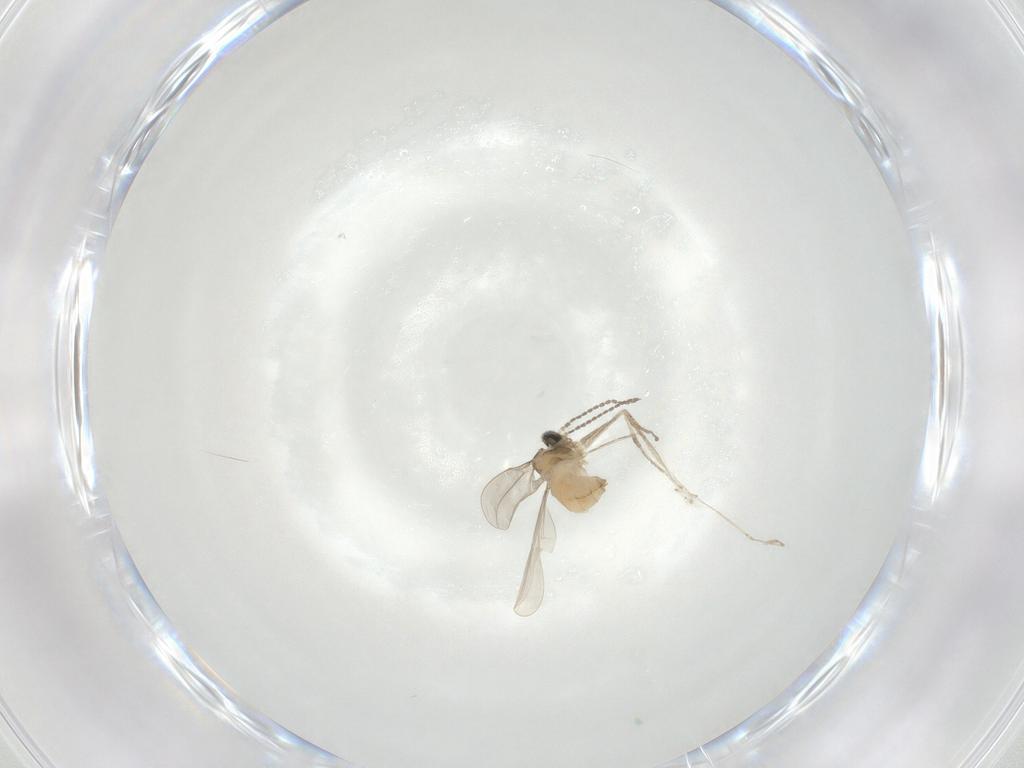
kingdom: Animalia
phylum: Arthropoda
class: Insecta
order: Diptera
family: Cecidomyiidae
